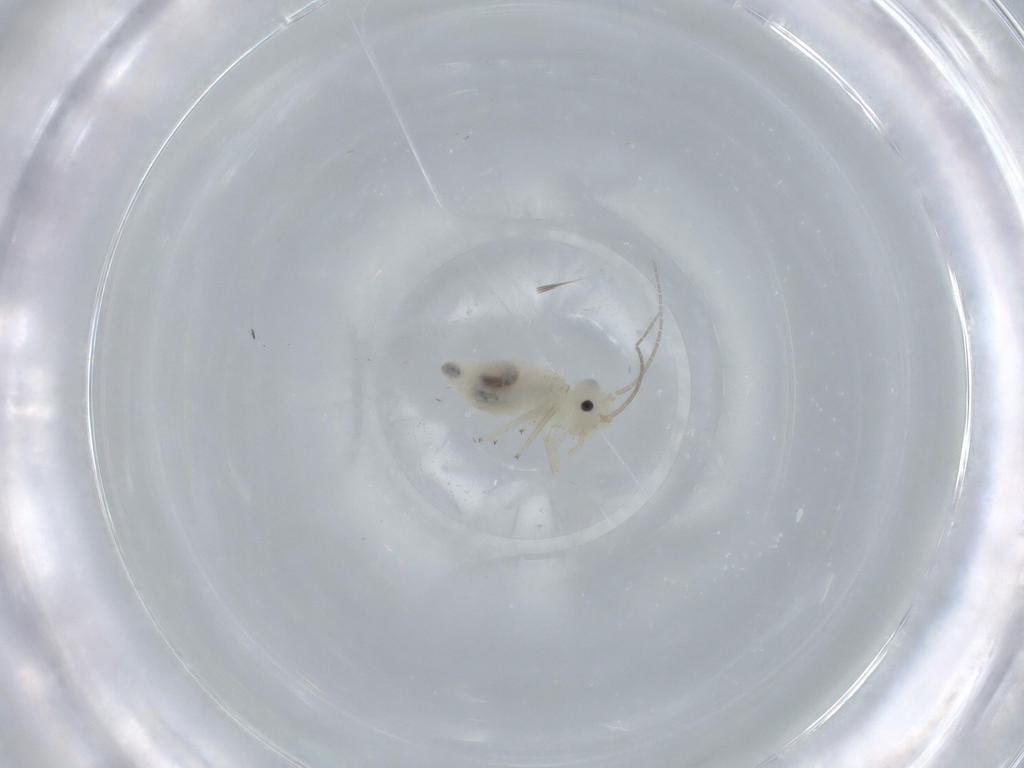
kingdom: Animalia
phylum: Arthropoda
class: Insecta
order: Psocodea
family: Caeciliusidae
